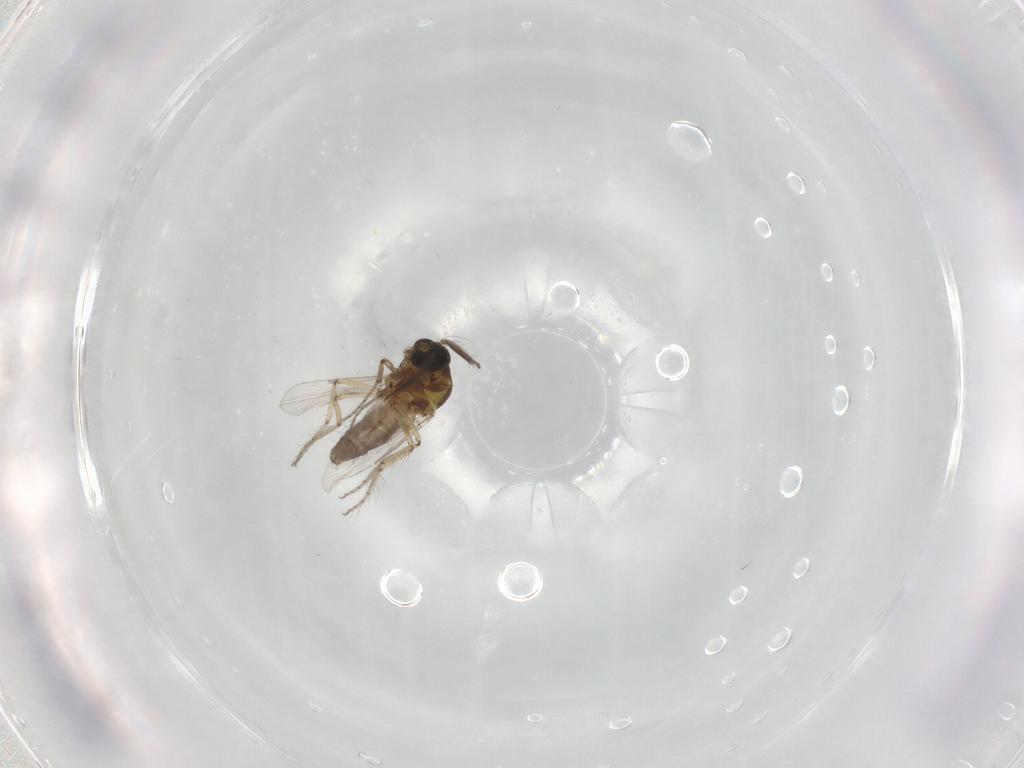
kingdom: Animalia
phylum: Arthropoda
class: Insecta
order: Diptera
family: Ceratopogonidae
